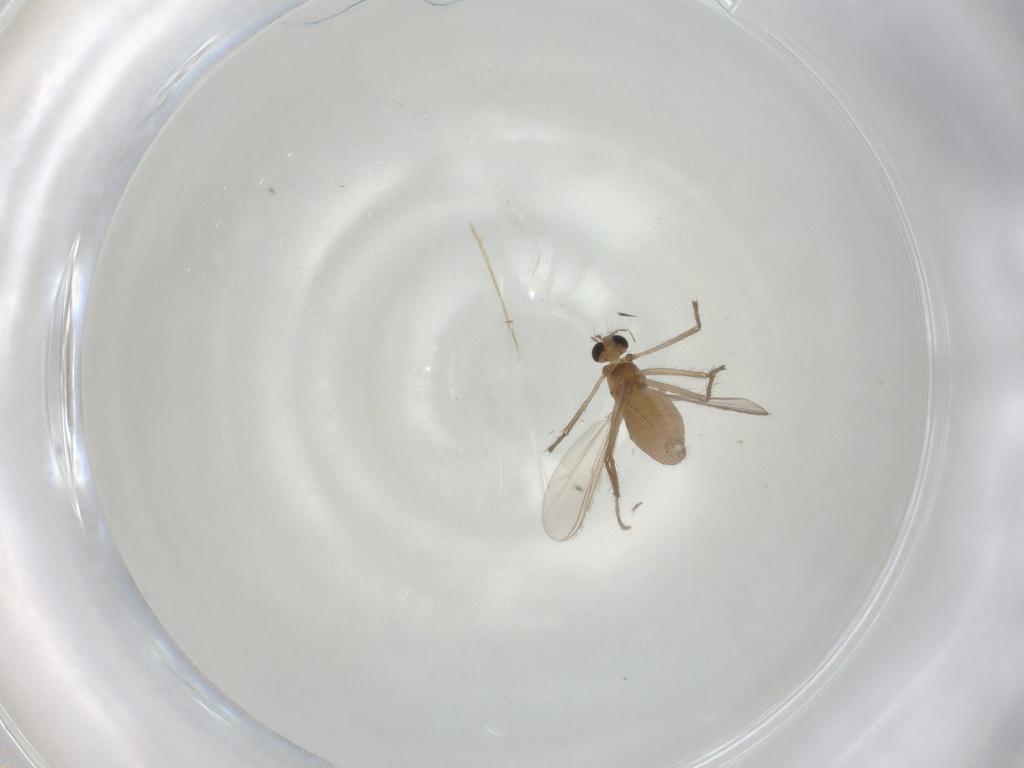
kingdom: Animalia
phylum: Arthropoda
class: Insecta
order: Diptera
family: Chironomidae
